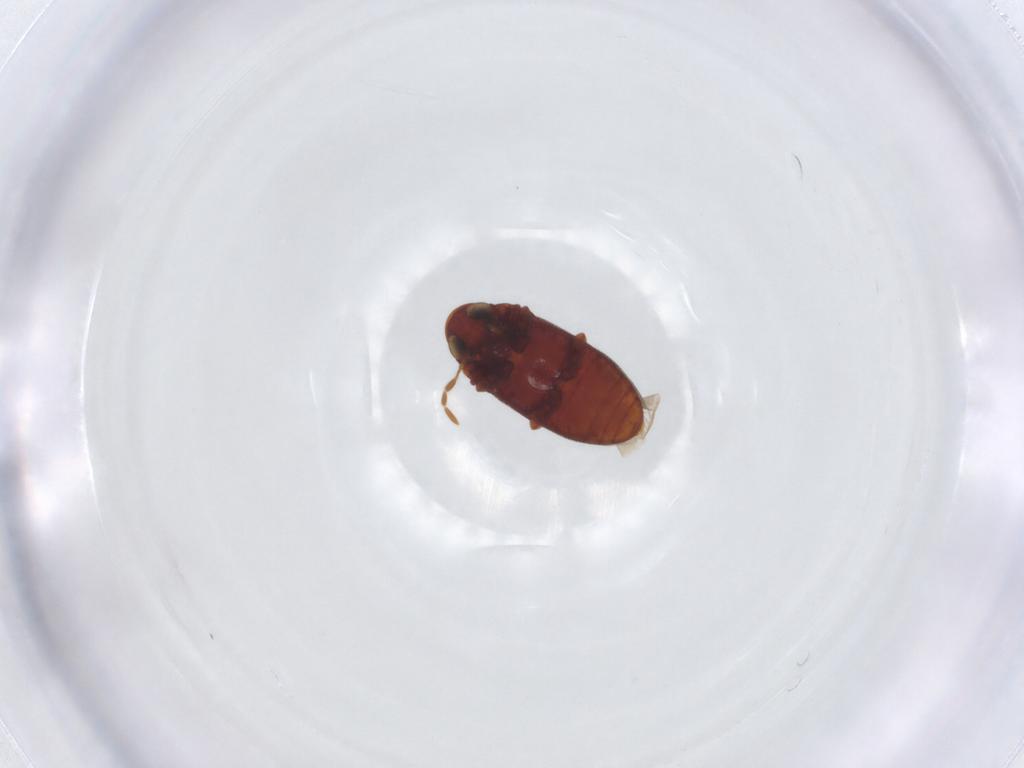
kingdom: Animalia
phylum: Arthropoda
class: Insecta
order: Coleoptera
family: Ptinidae
